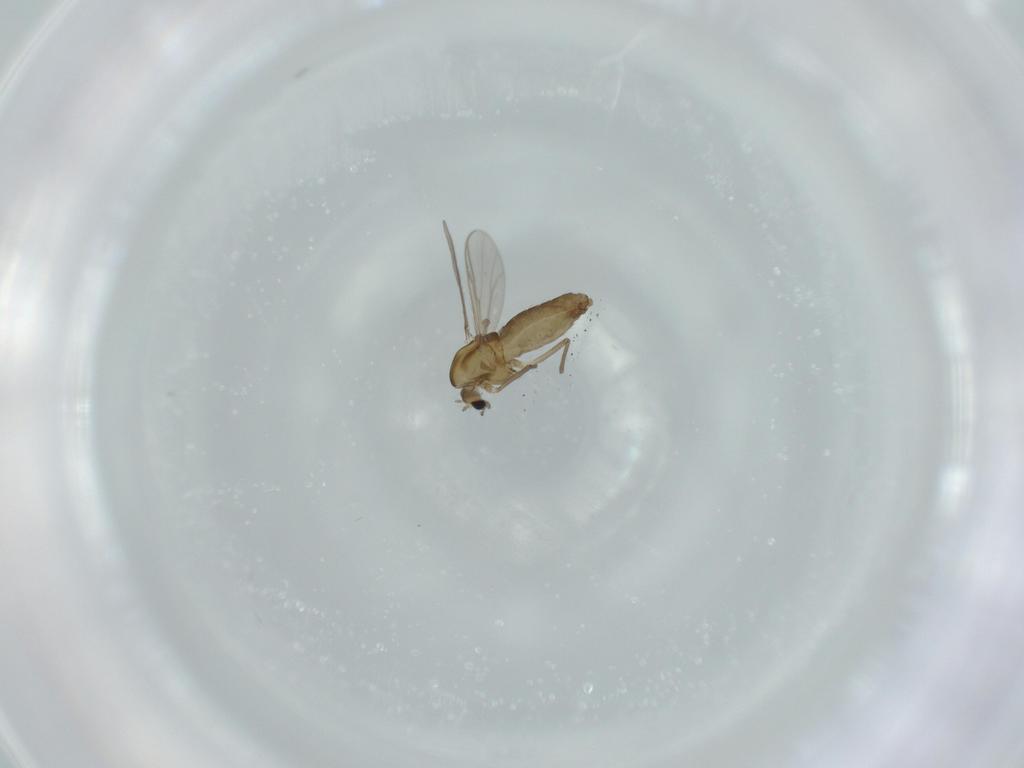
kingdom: Animalia
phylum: Arthropoda
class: Insecta
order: Diptera
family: Chironomidae
